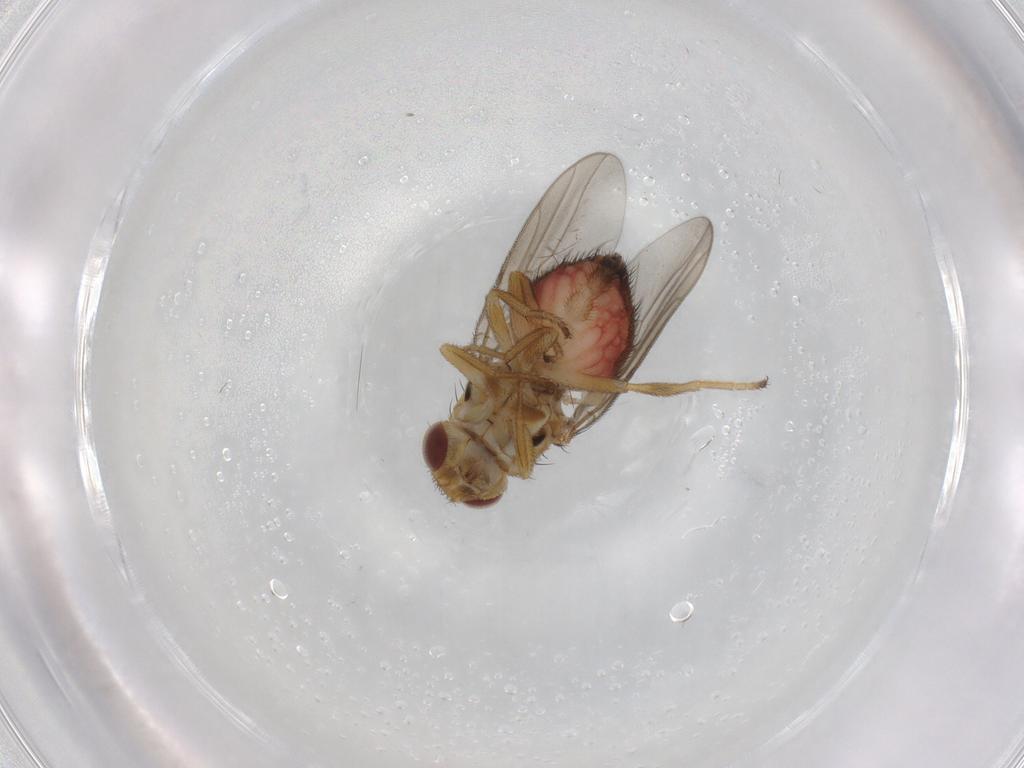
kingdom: Animalia
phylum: Arthropoda
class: Insecta
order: Diptera
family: Chloropidae
